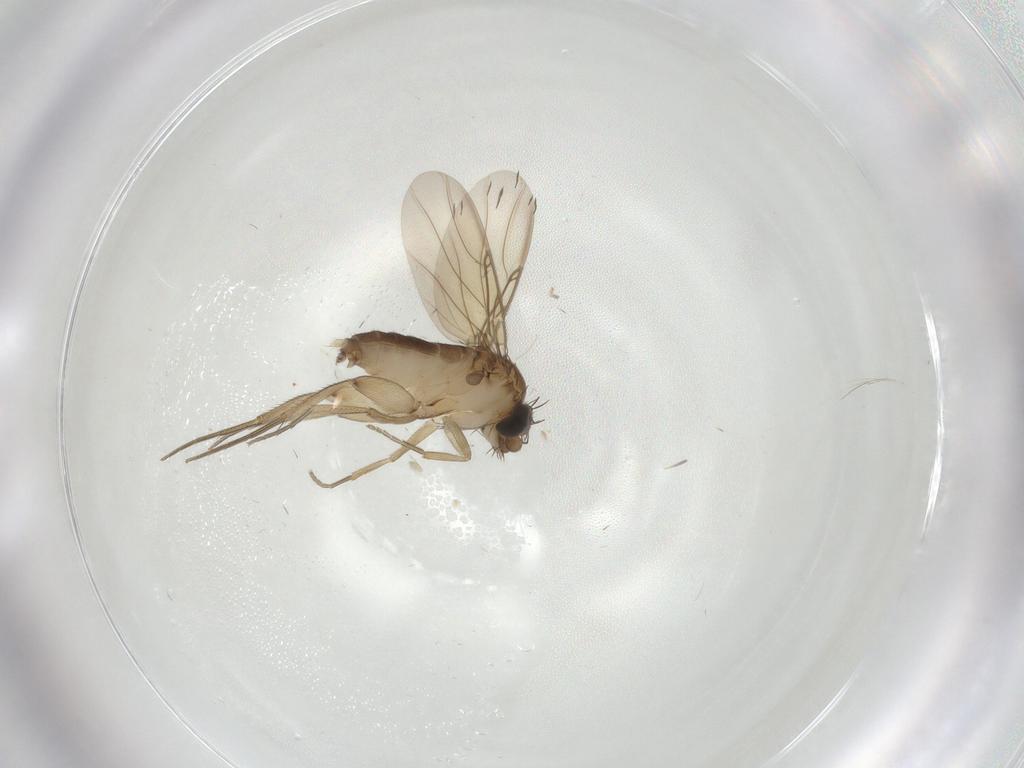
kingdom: Animalia
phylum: Arthropoda
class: Insecta
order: Diptera
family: Phoridae
